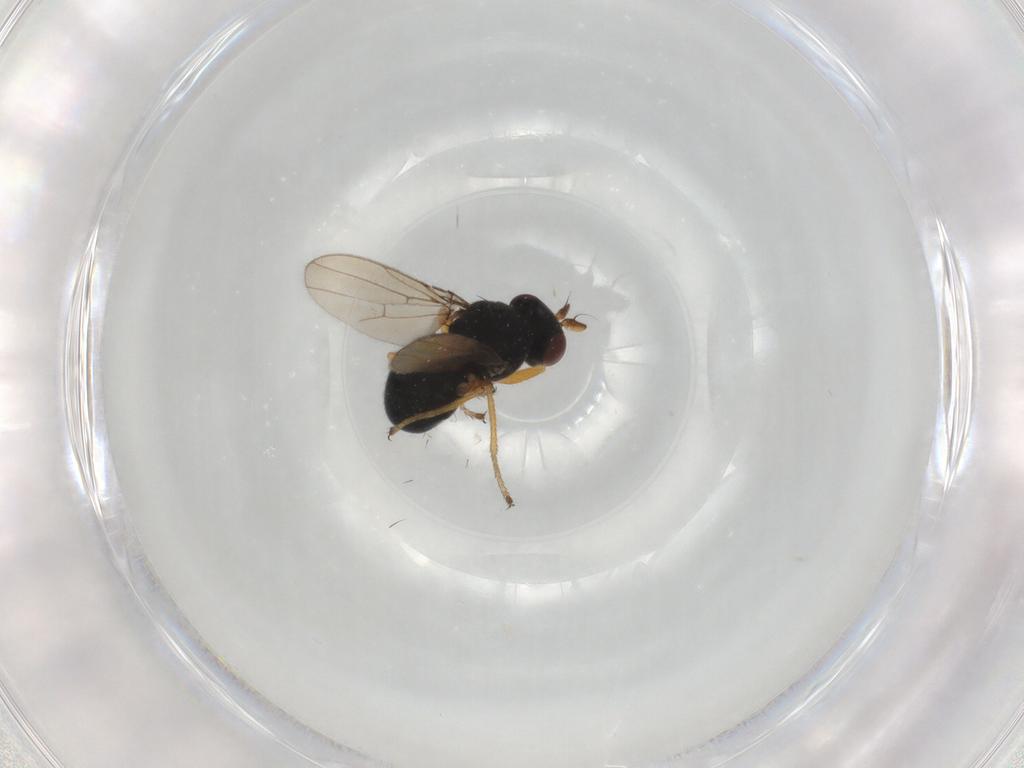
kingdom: Animalia
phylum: Arthropoda
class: Insecta
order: Diptera
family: Ephydridae
